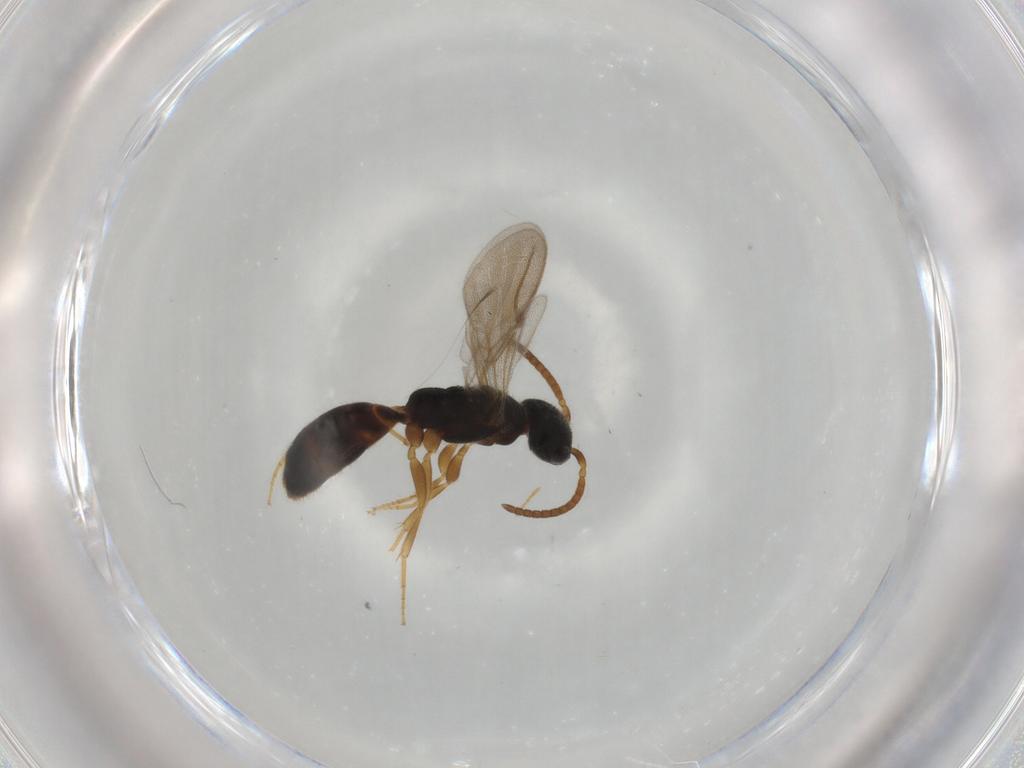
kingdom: Animalia
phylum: Arthropoda
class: Insecta
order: Hymenoptera
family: Bethylidae
